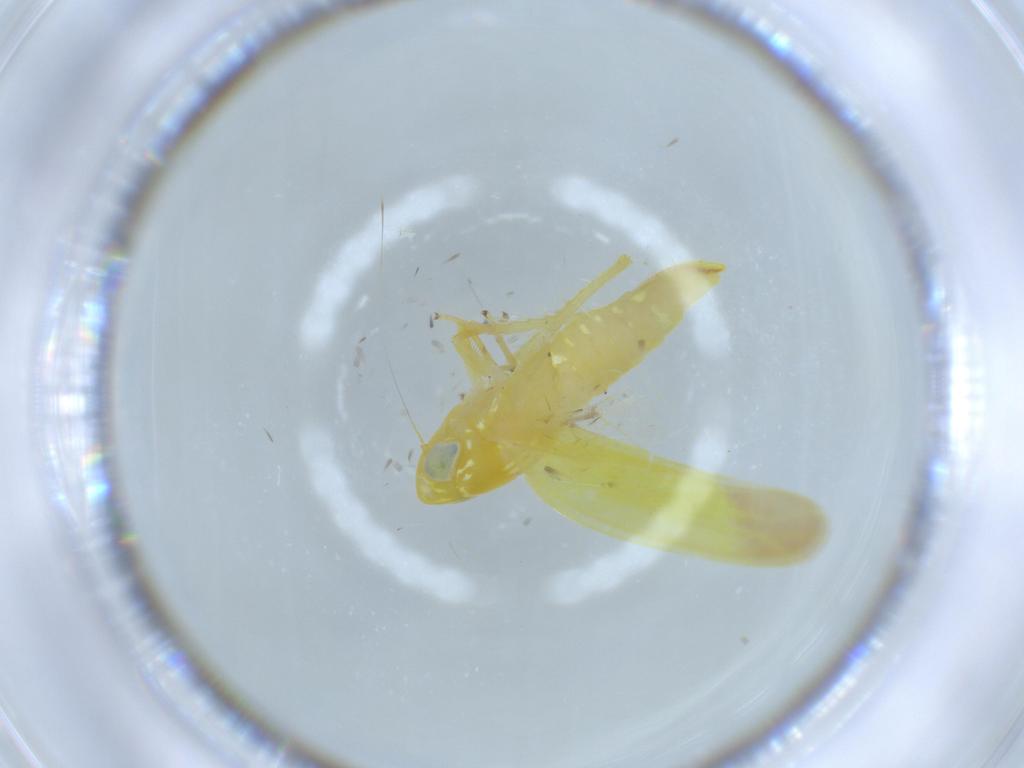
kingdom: Animalia
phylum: Arthropoda
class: Insecta
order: Hemiptera
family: Cicadellidae
